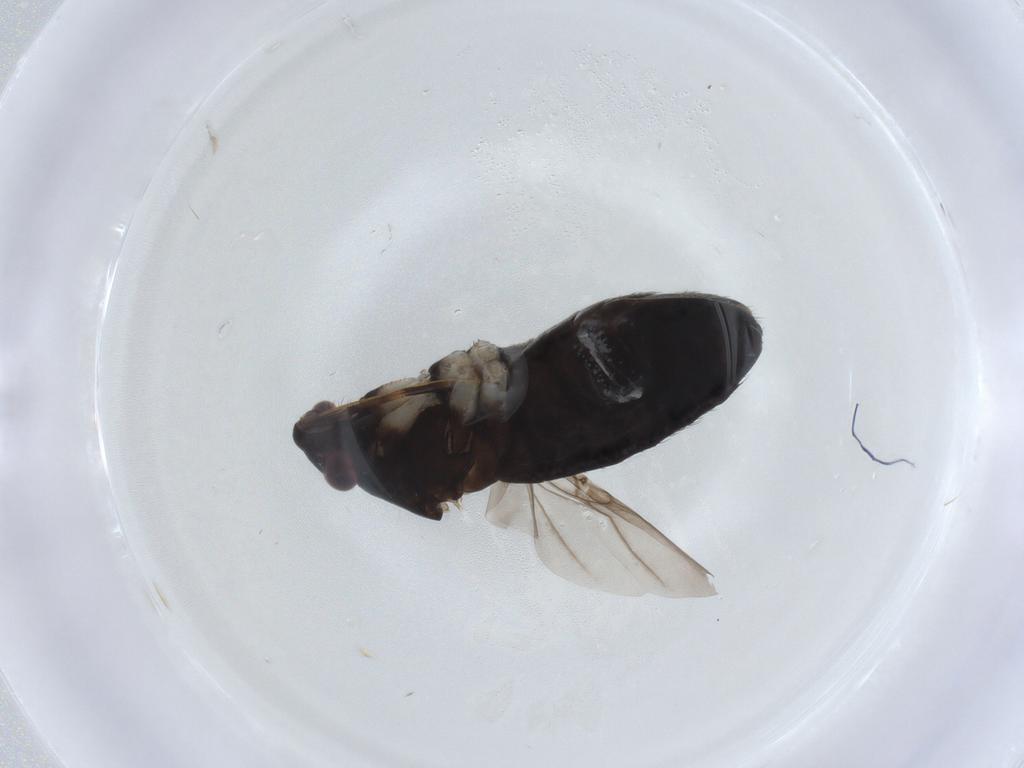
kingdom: Animalia
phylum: Arthropoda
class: Insecta
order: Hemiptera
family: Miridae
